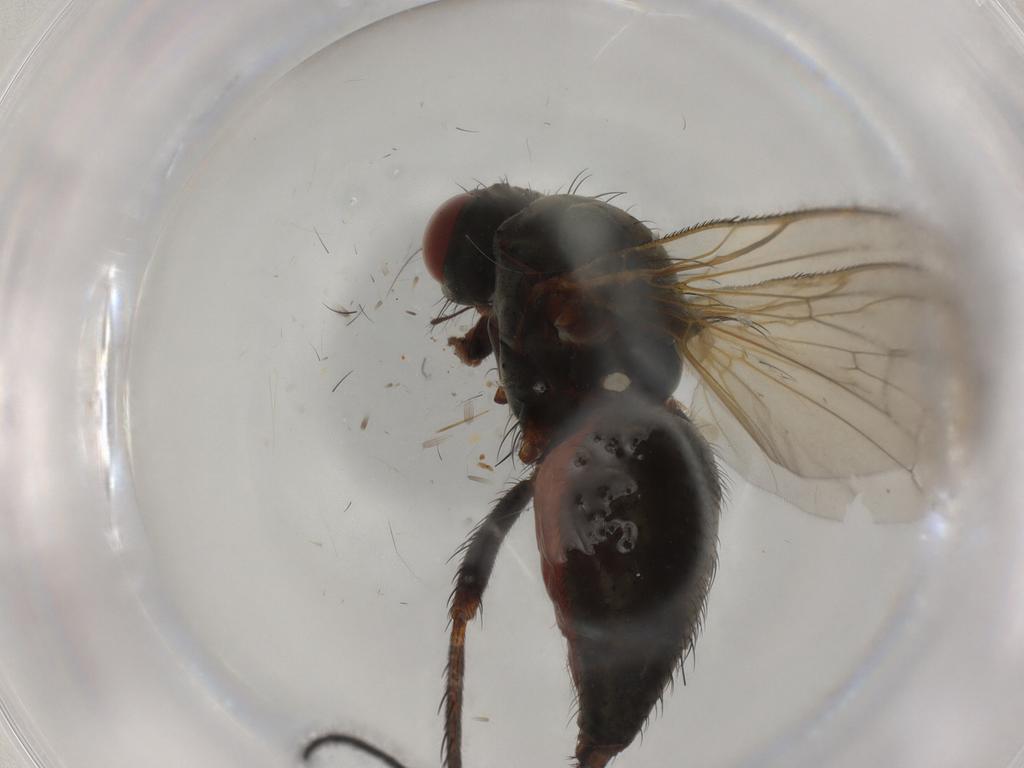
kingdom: Animalia
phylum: Arthropoda
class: Insecta
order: Diptera
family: Anthomyiidae
